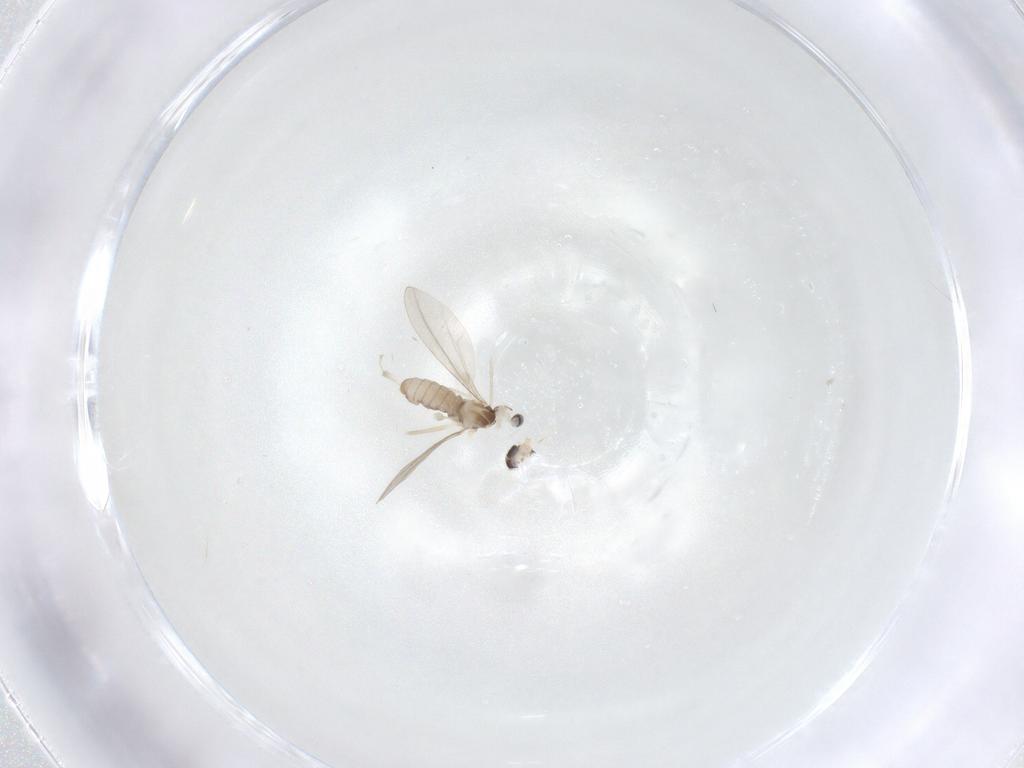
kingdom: Animalia
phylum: Arthropoda
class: Insecta
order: Diptera
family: Cecidomyiidae
